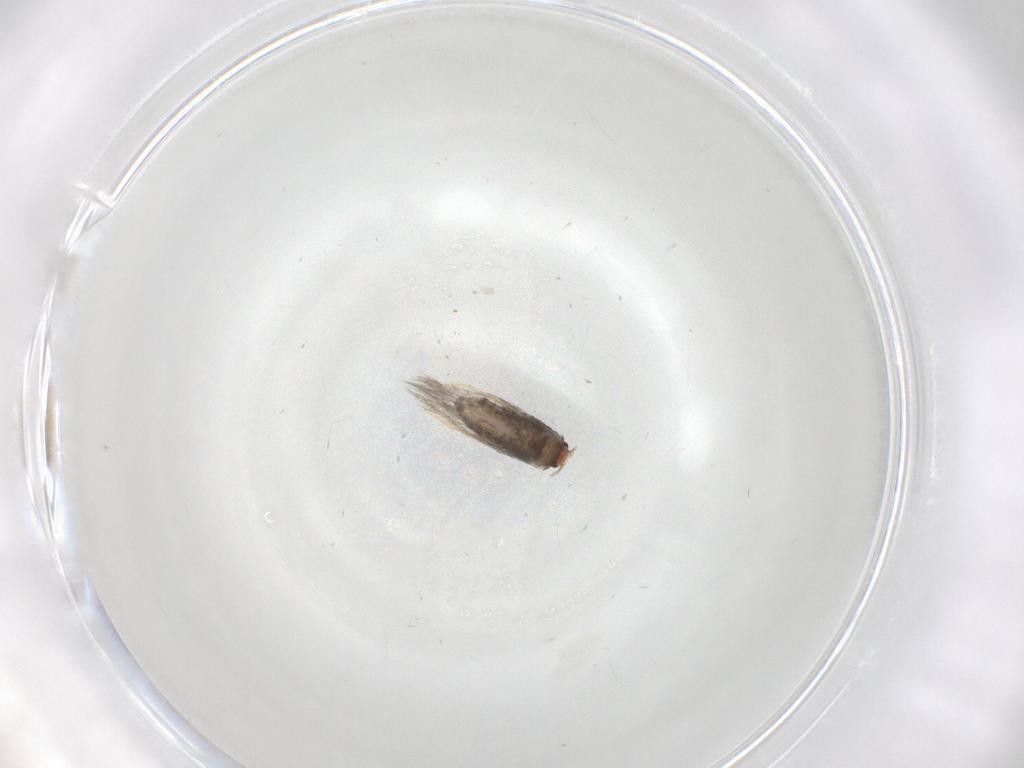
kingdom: Animalia
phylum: Arthropoda
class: Insecta
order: Lepidoptera
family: Nepticulidae
